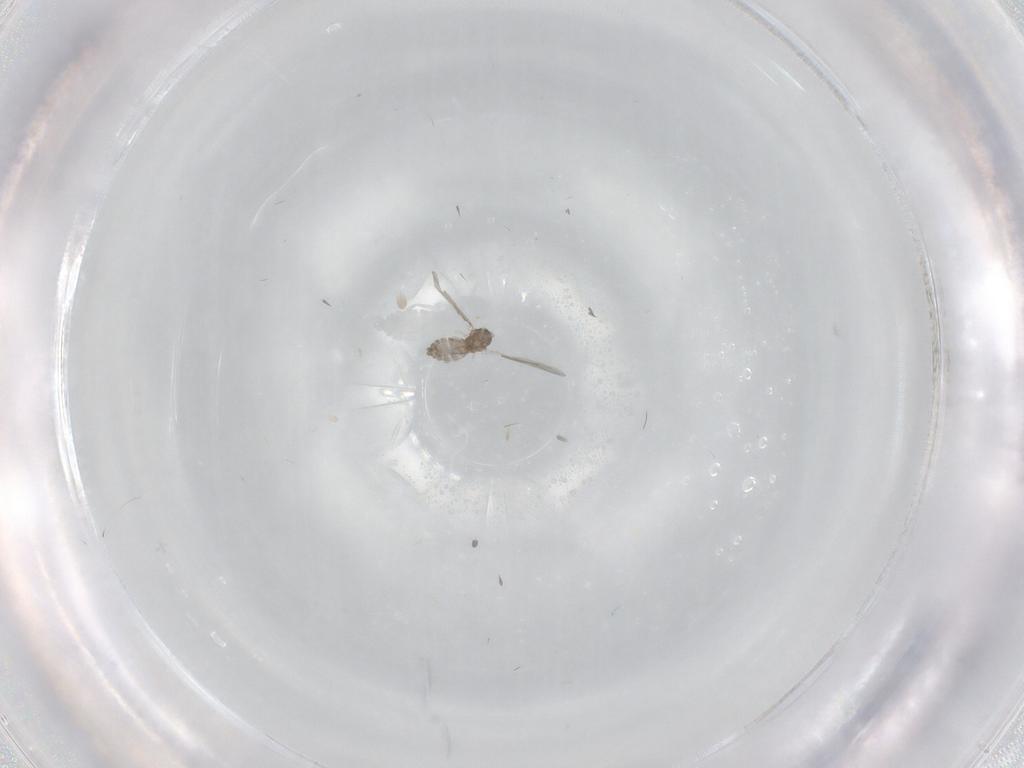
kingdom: Animalia
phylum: Arthropoda
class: Insecta
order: Diptera
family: Cecidomyiidae
